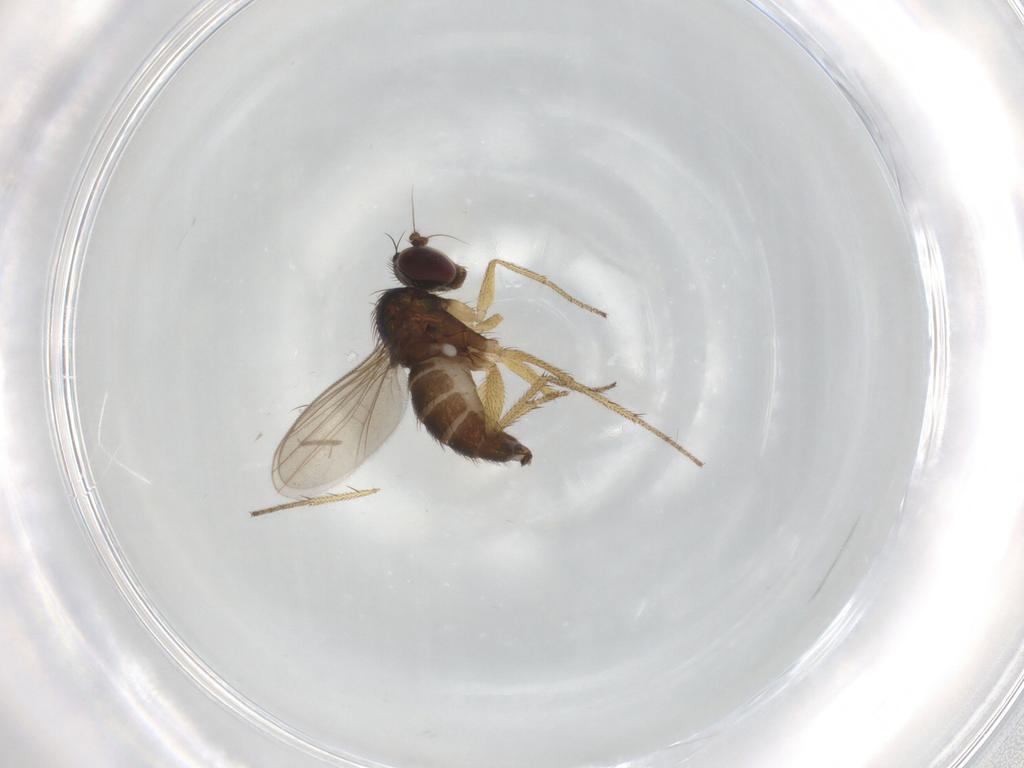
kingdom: Animalia
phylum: Arthropoda
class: Insecta
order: Diptera
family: Dolichopodidae
